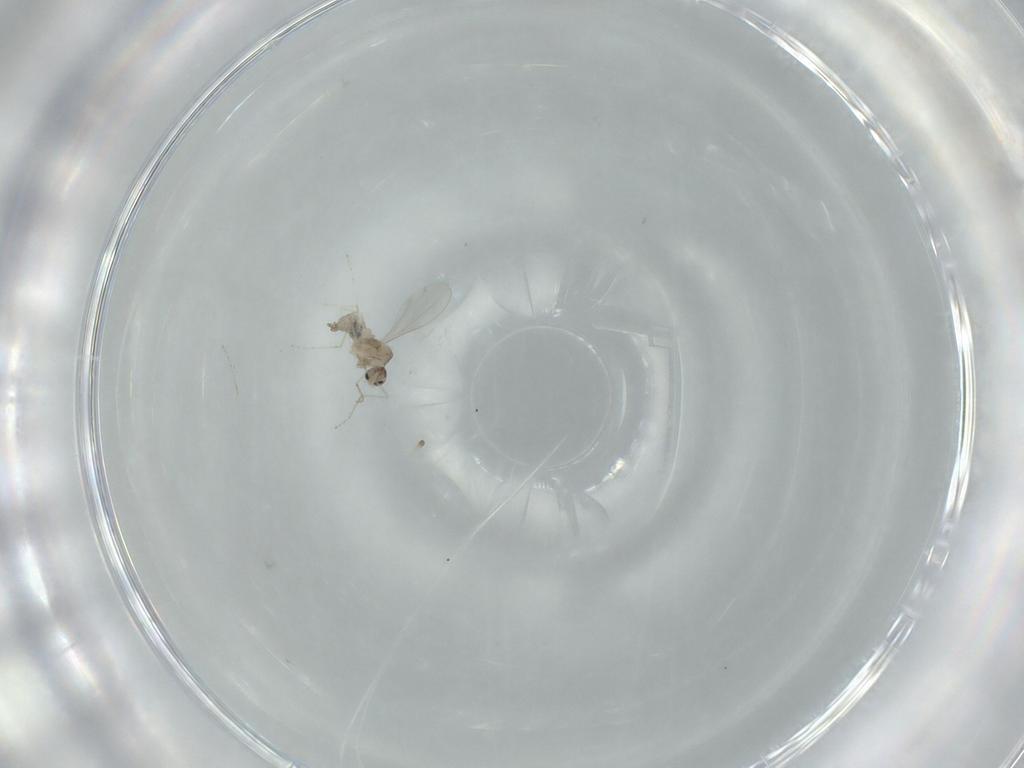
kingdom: Animalia
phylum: Arthropoda
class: Insecta
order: Diptera
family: Cecidomyiidae
